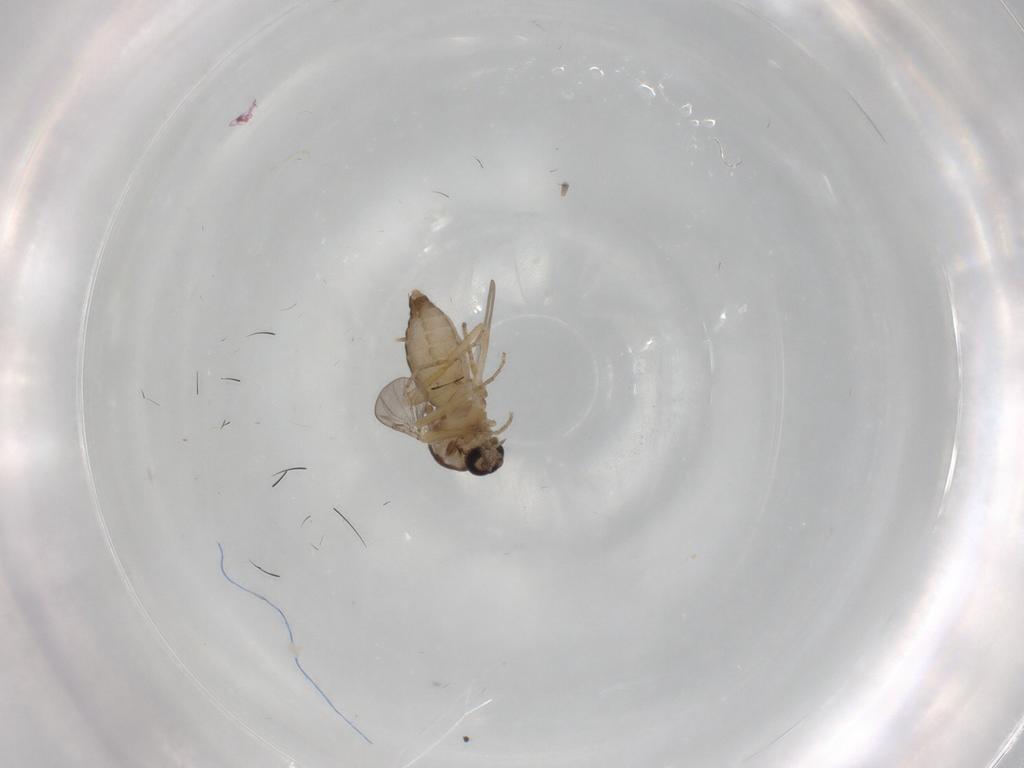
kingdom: Animalia
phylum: Arthropoda
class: Insecta
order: Diptera
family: Ceratopogonidae
